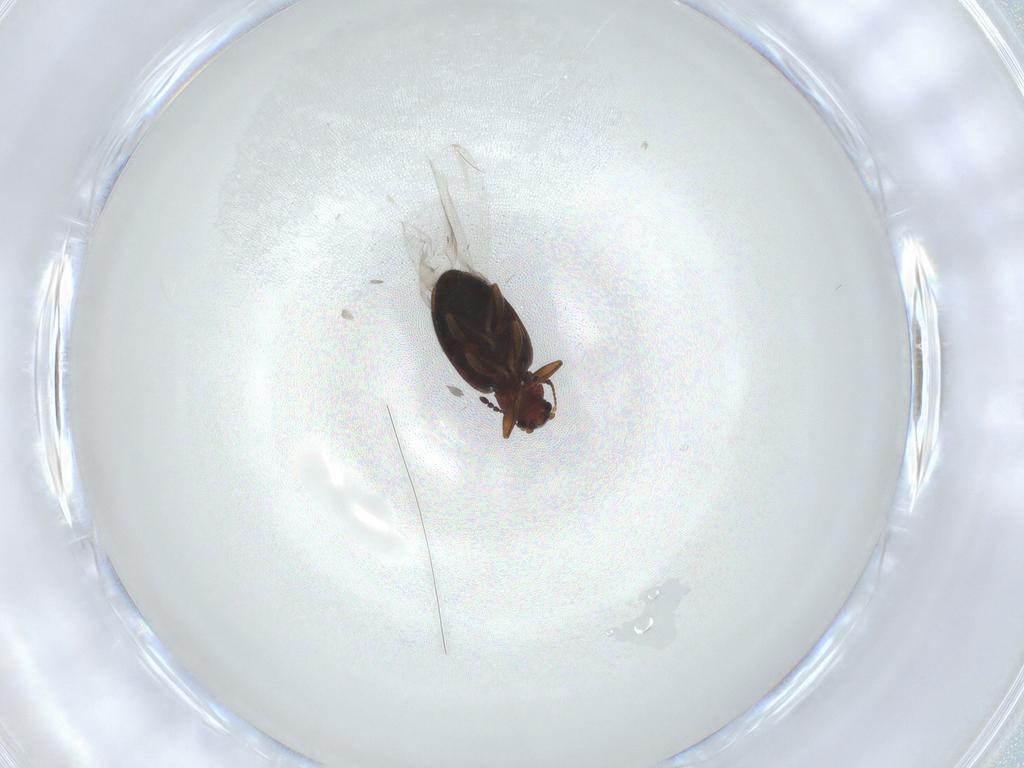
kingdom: Animalia
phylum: Arthropoda
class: Insecta
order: Coleoptera
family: Latridiidae
